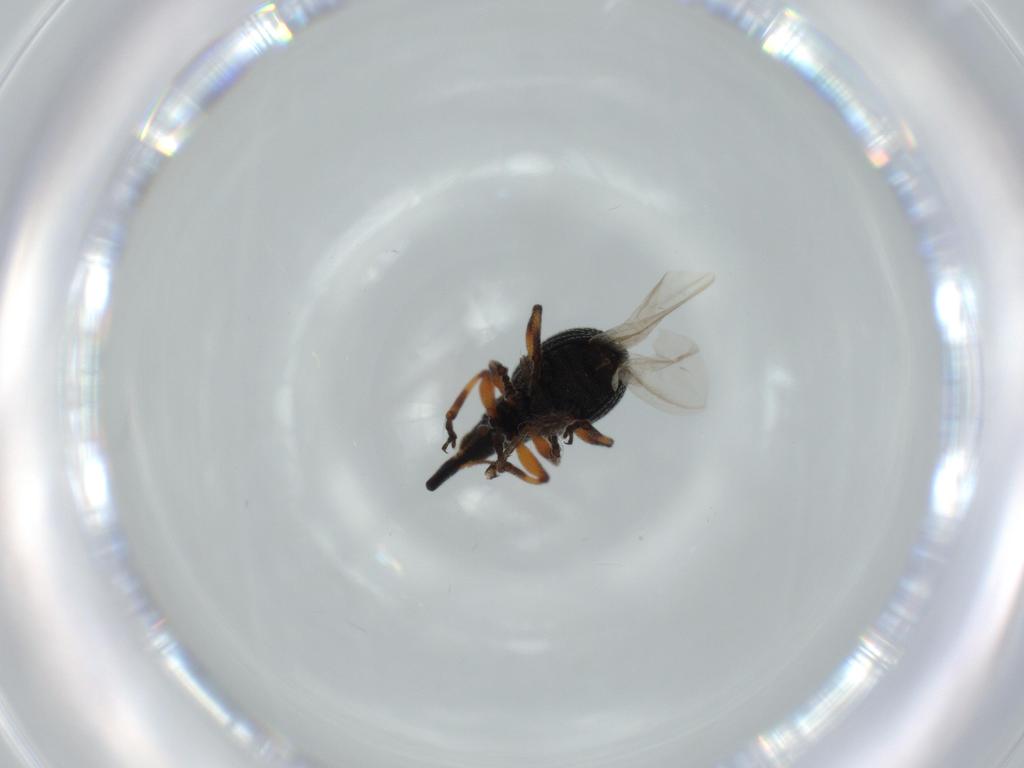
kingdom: Animalia
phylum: Arthropoda
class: Insecta
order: Coleoptera
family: Brentidae
